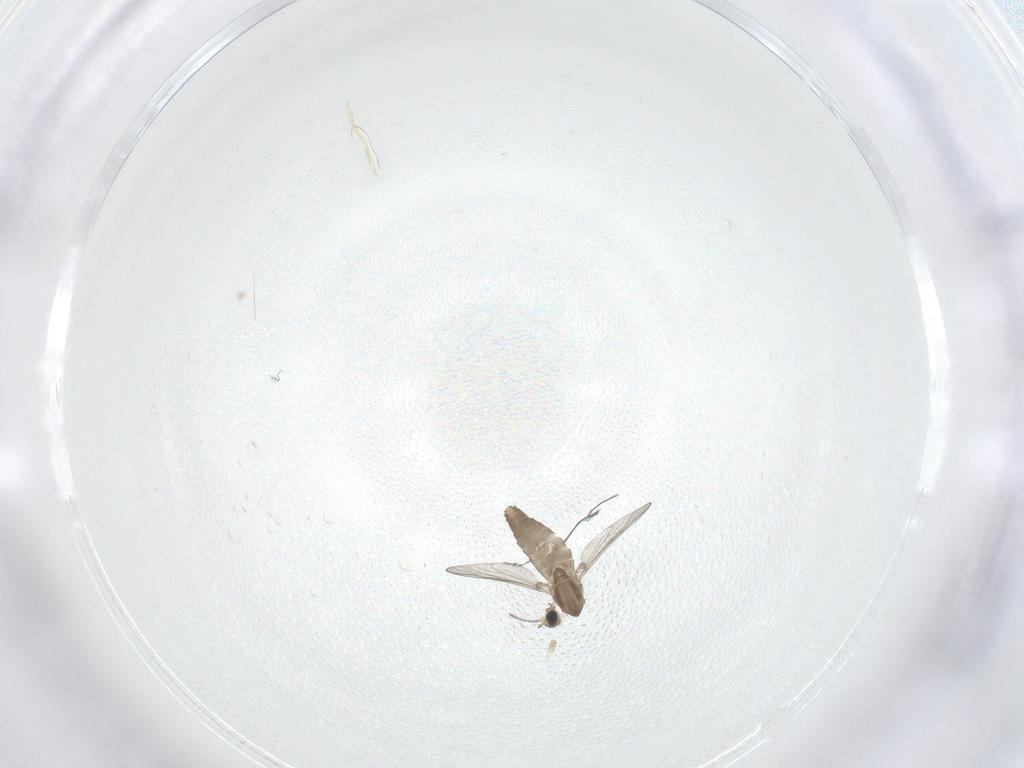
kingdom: Animalia
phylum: Arthropoda
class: Insecta
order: Diptera
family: Chironomidae
